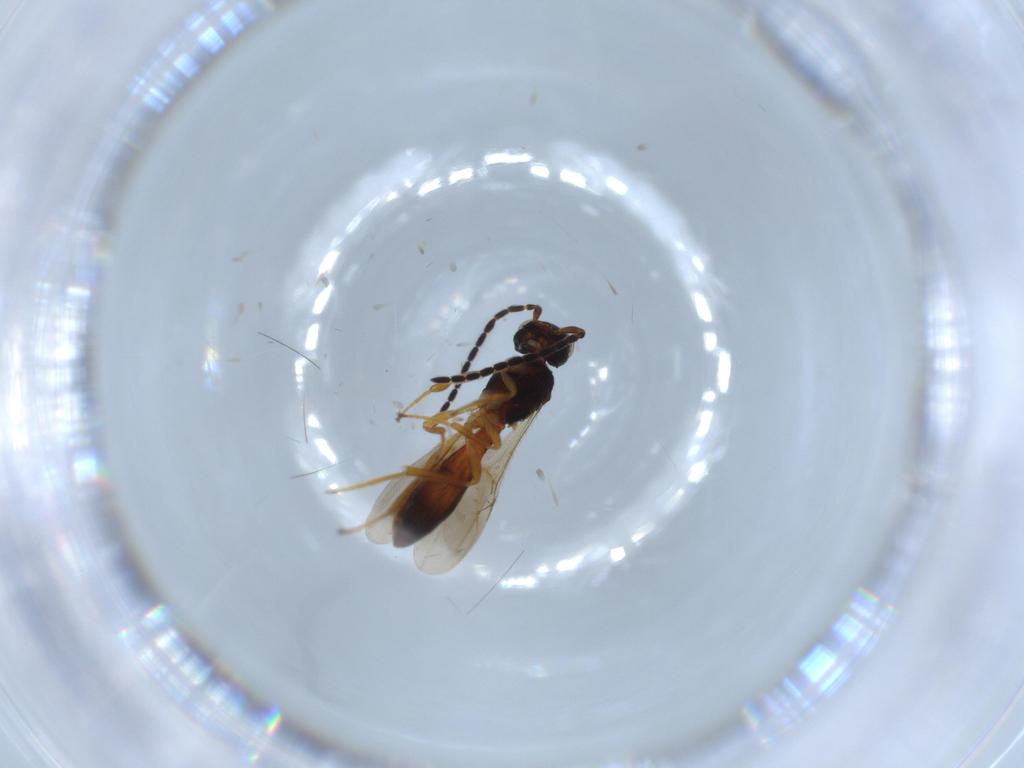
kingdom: Animalia
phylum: Arthropoda
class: Insecta
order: Hymenoptera
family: Scelionidae
